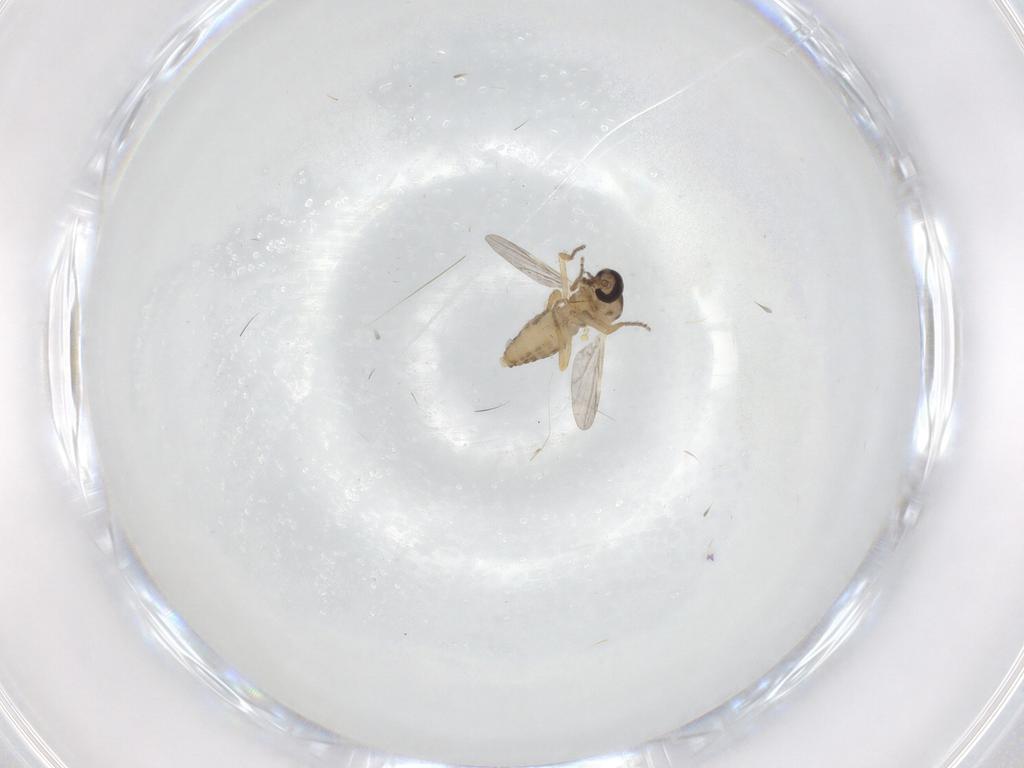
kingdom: Animalia
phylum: Arthropoda
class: Insecta
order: Diptera
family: Ceratopogonidae
